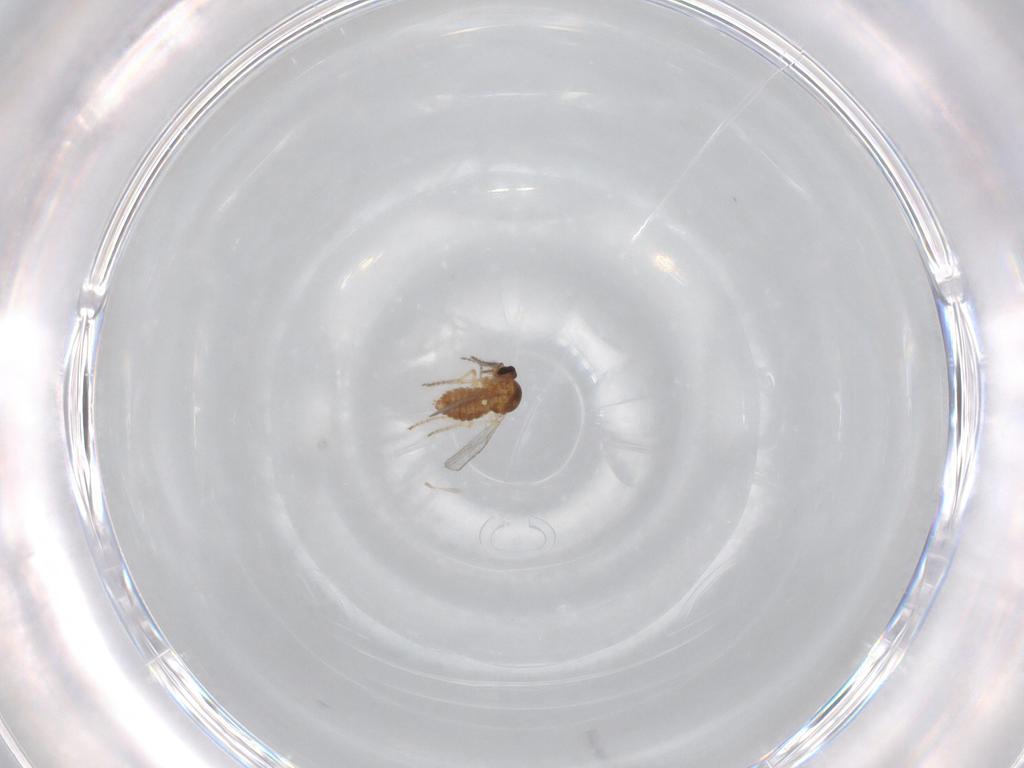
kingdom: Animalia
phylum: Arthropoda
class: Insecta
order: Diptera
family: Ceratopogonidae
